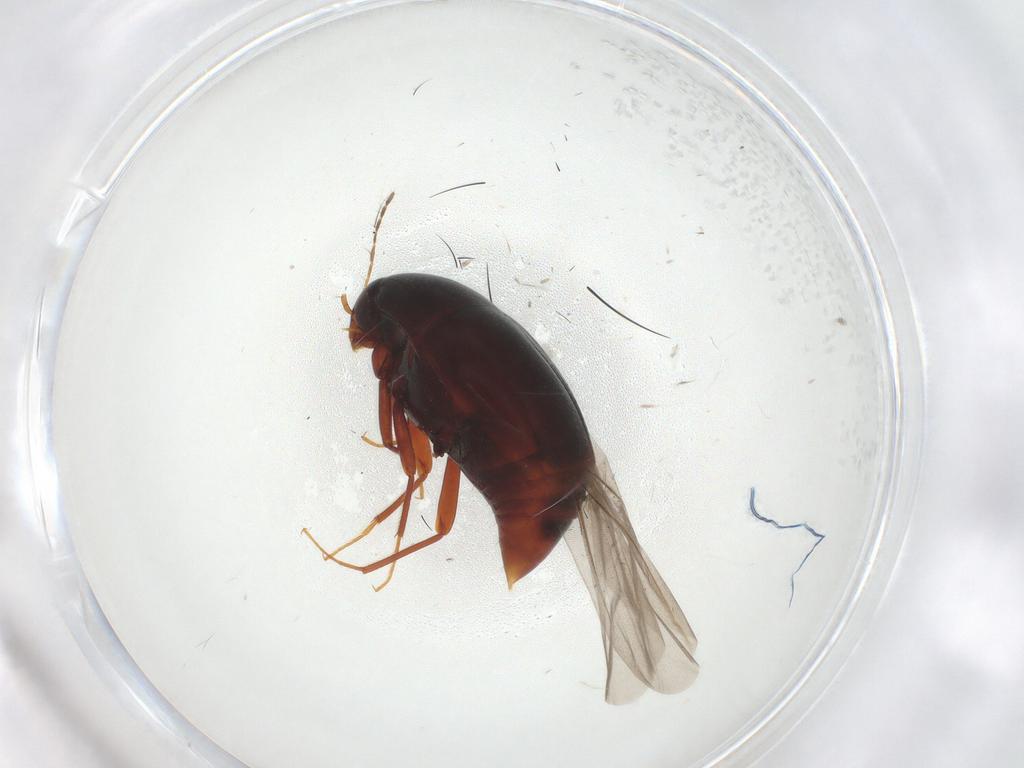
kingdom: Animalia
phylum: Arthropoda
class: Insecta
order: Coleoptera
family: Staphylinidae
